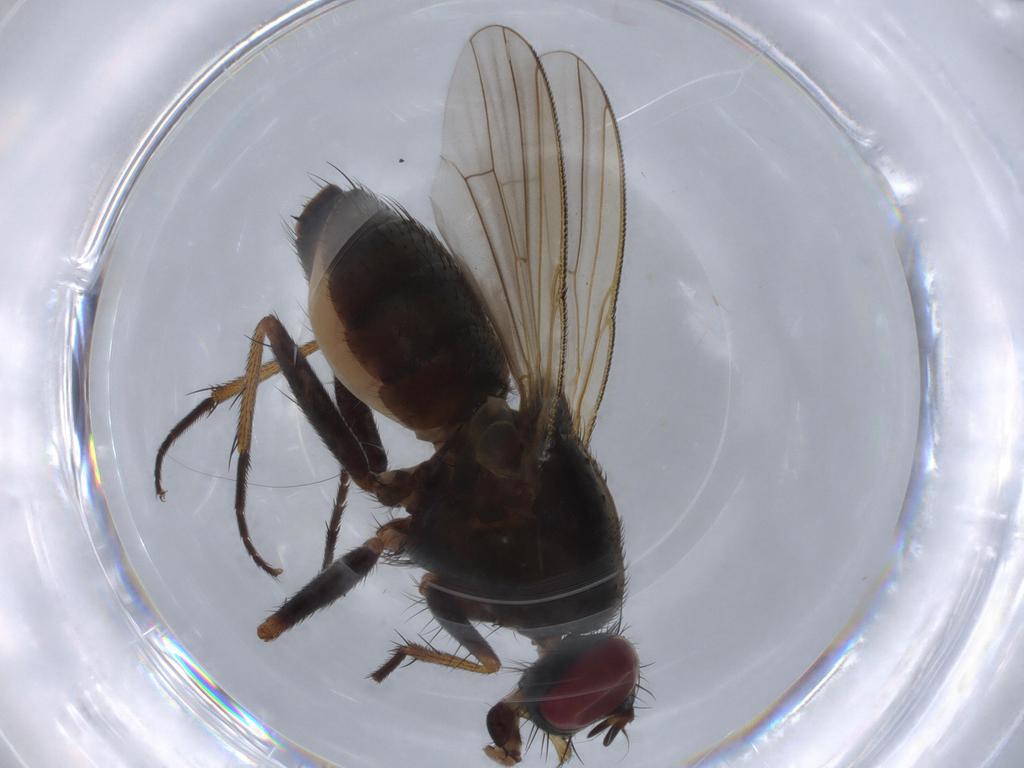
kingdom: Animalia
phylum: Arthropoda
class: Insecta
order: Diptera
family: Muscidae
